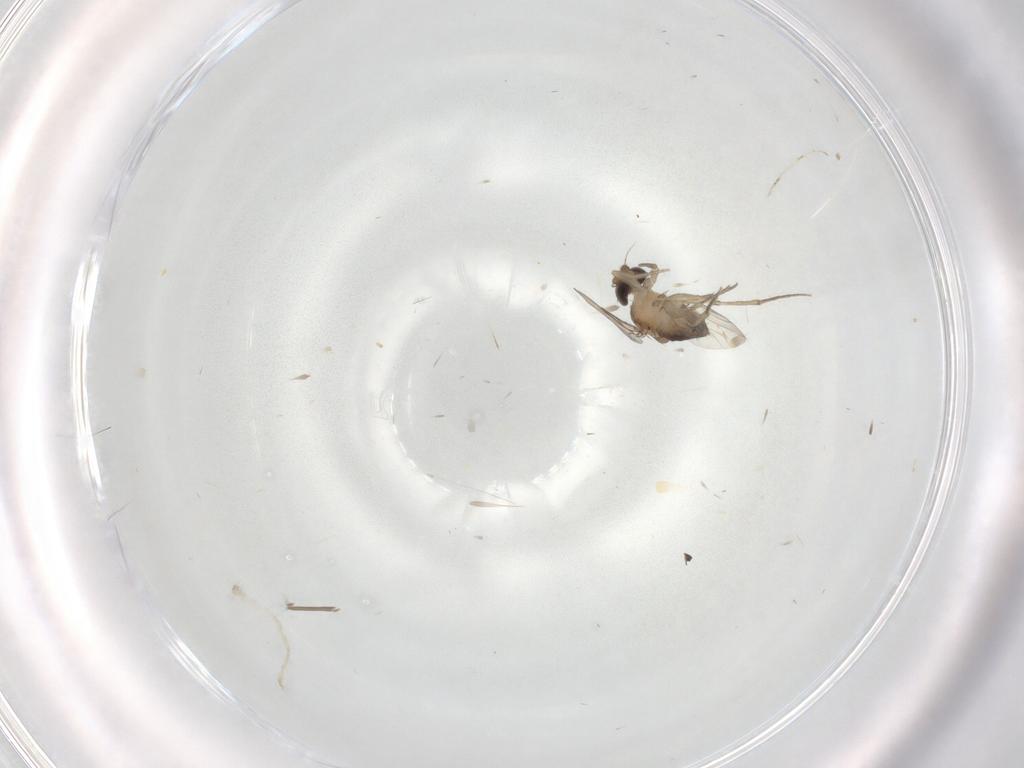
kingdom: Animalia
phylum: Arthropoda
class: Insecta
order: Diptera
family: Phoridae
